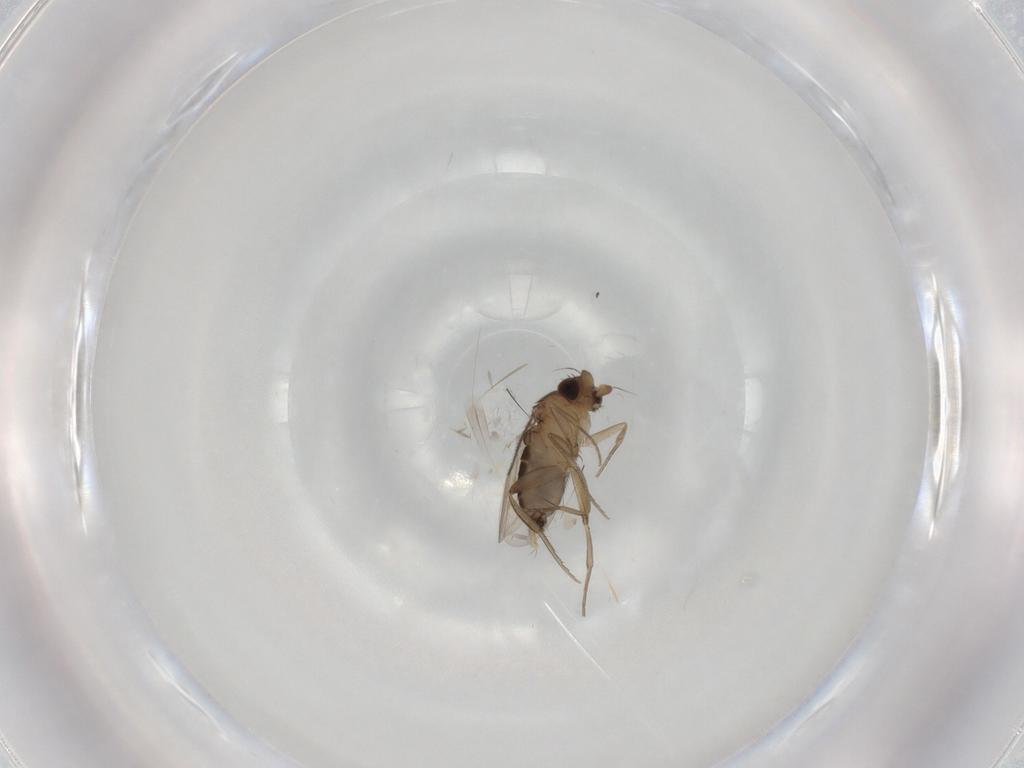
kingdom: Animalia
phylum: Arthropoda
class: Insecta
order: Diptera
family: Phoridae
